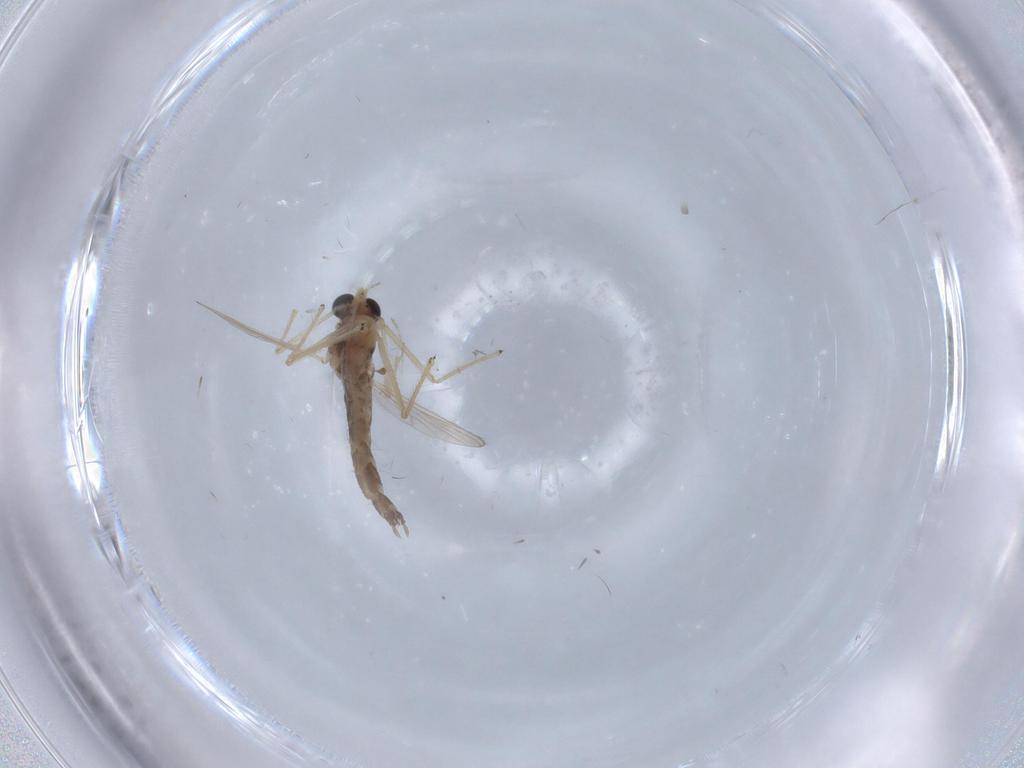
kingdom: Animalia
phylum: Arthropoda
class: Insecta
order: Diptera
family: Chironomidae
